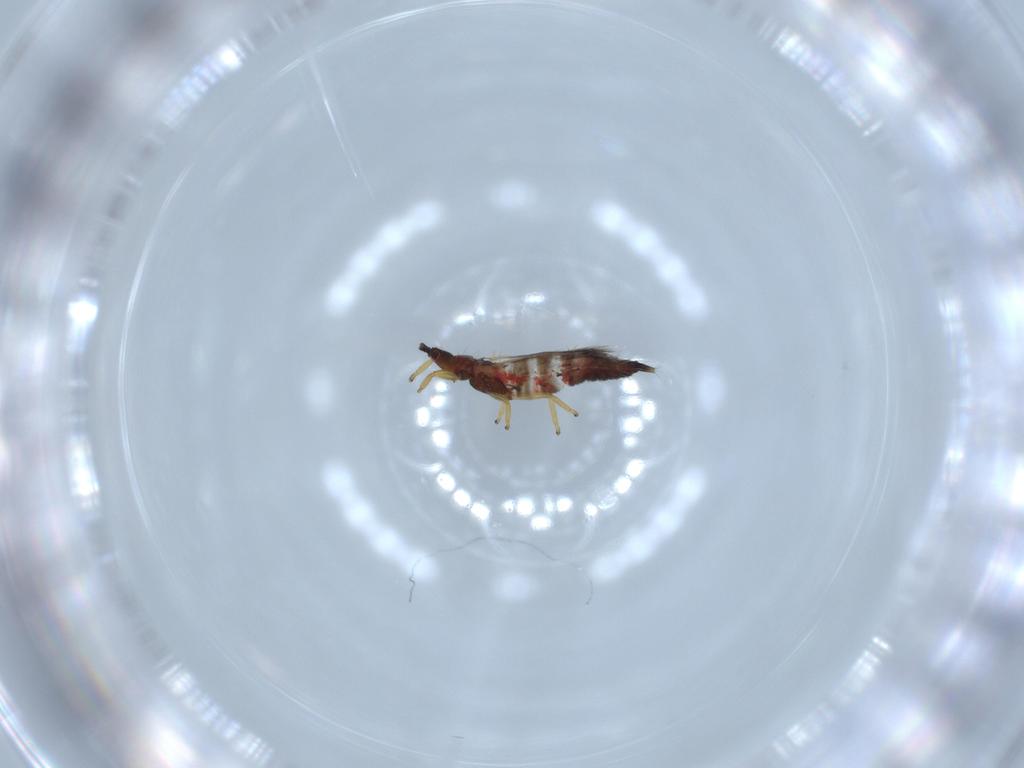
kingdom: Animalia
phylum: Arthropoda
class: Insecta
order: Thysanoptera
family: Phlaeothripidae
